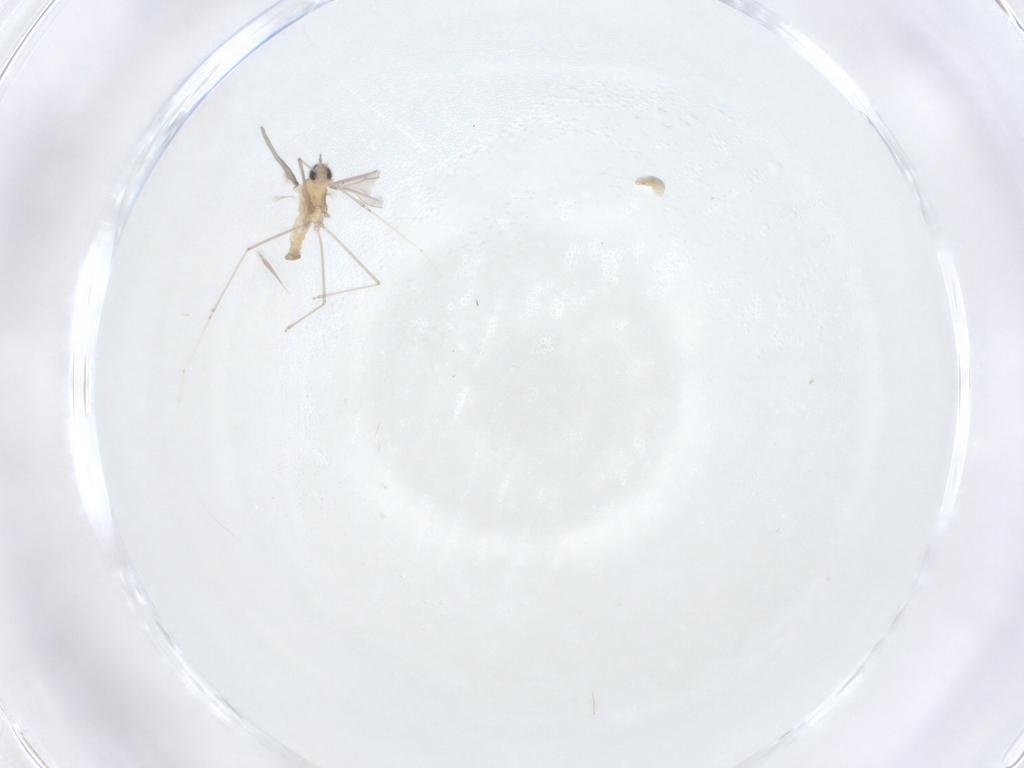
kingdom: Animalia
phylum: Arthropoda
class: Insecta
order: Diptera
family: Cecidomyiidae
